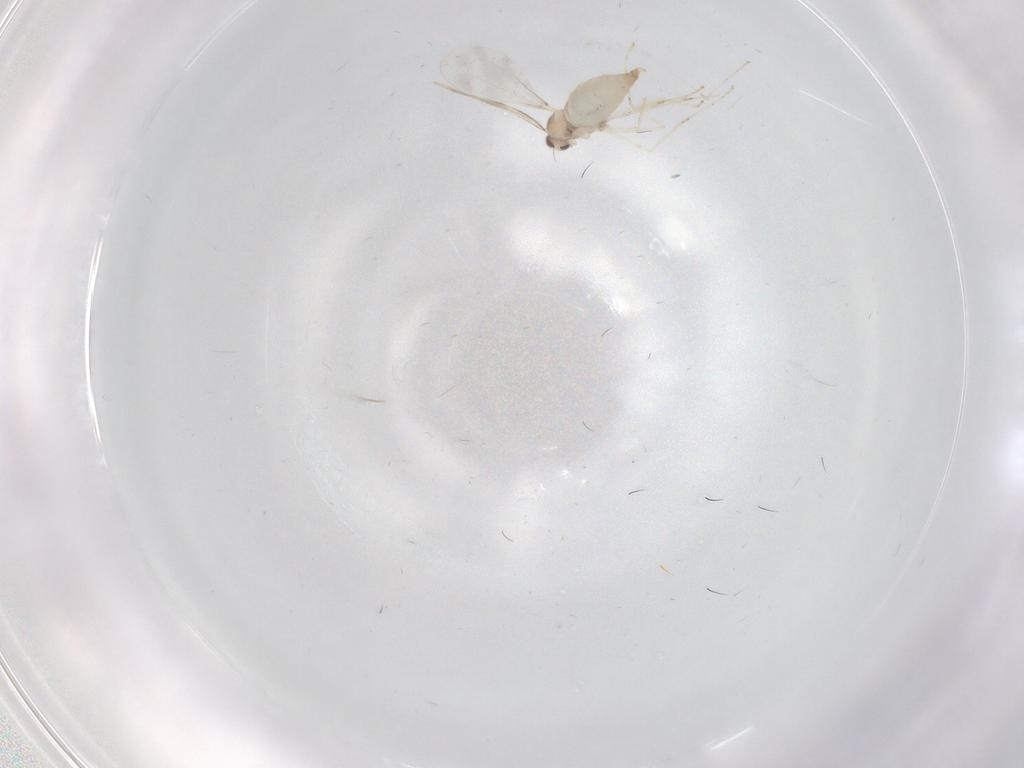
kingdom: Animalia
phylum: Arthropoda
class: Insecta
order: Diptera
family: Cecidomyiidae
